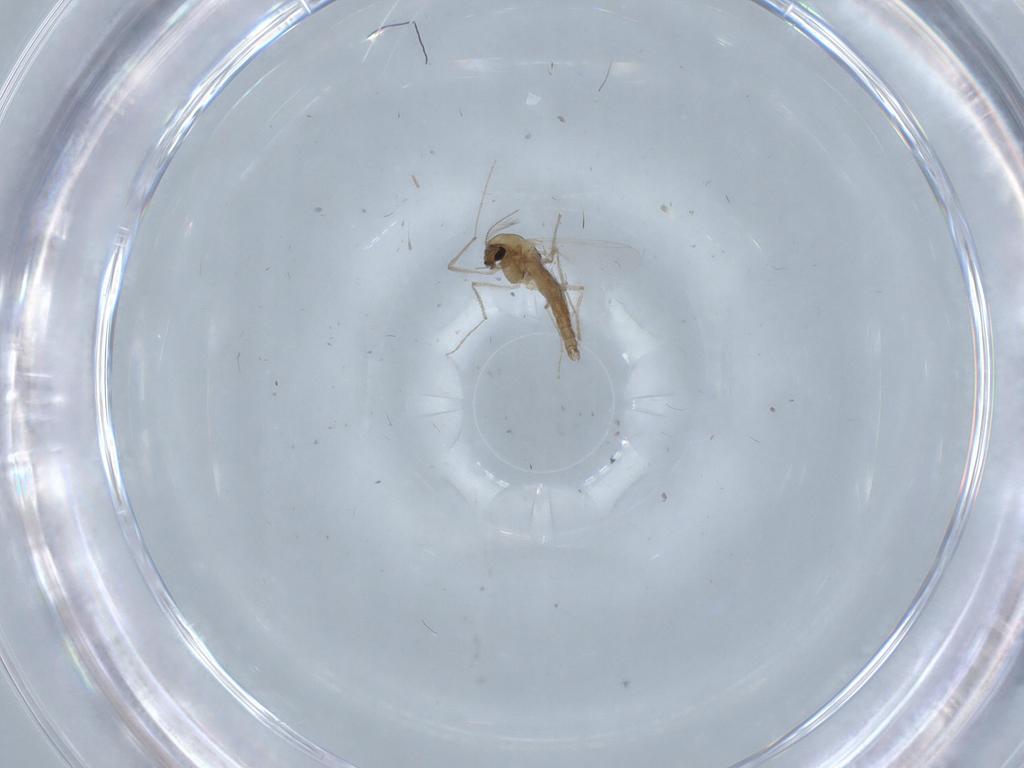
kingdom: Animalia
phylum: Arthropoda
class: Insecta
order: Diptera
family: Chironomidae
